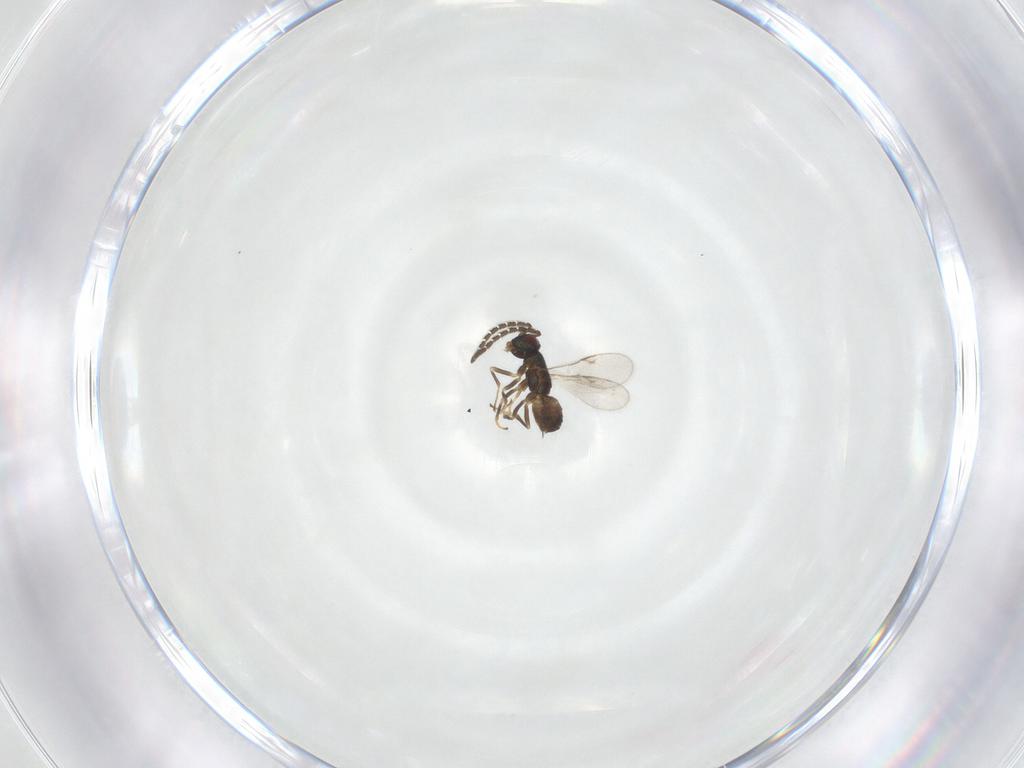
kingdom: Animalia
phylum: Arthropoda
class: Insecta
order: Hymenoptera
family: Encyrtidae
